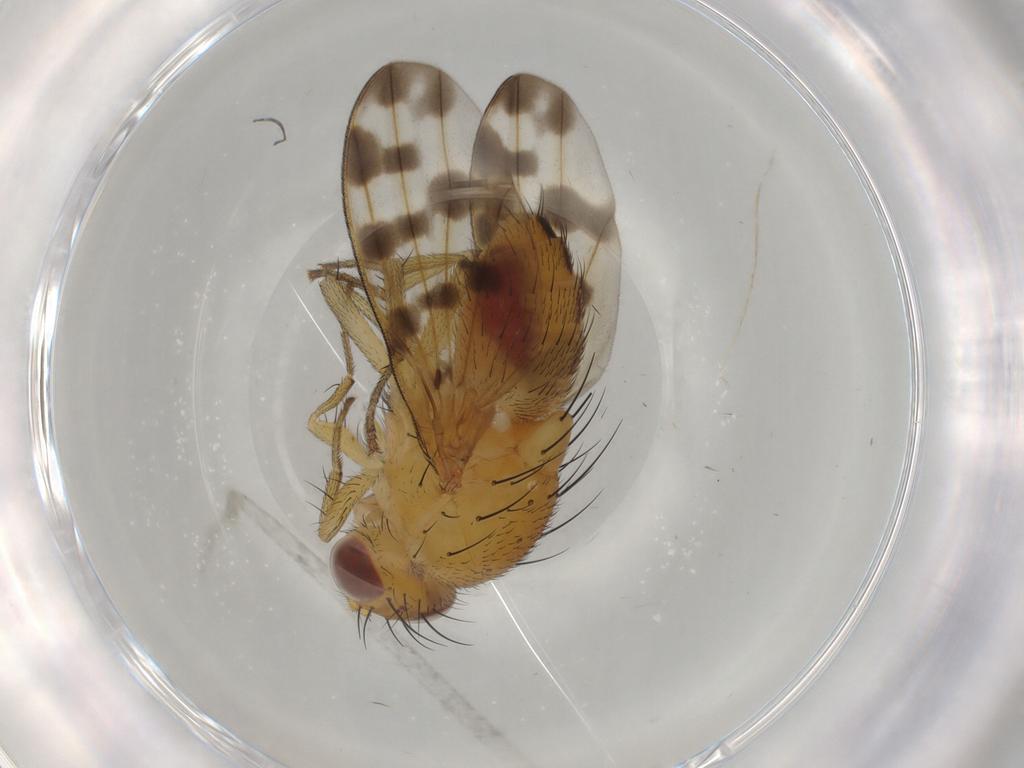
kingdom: Animalia
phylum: Arthropoda
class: Insecta
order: Diptera
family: Lauxaniidae
